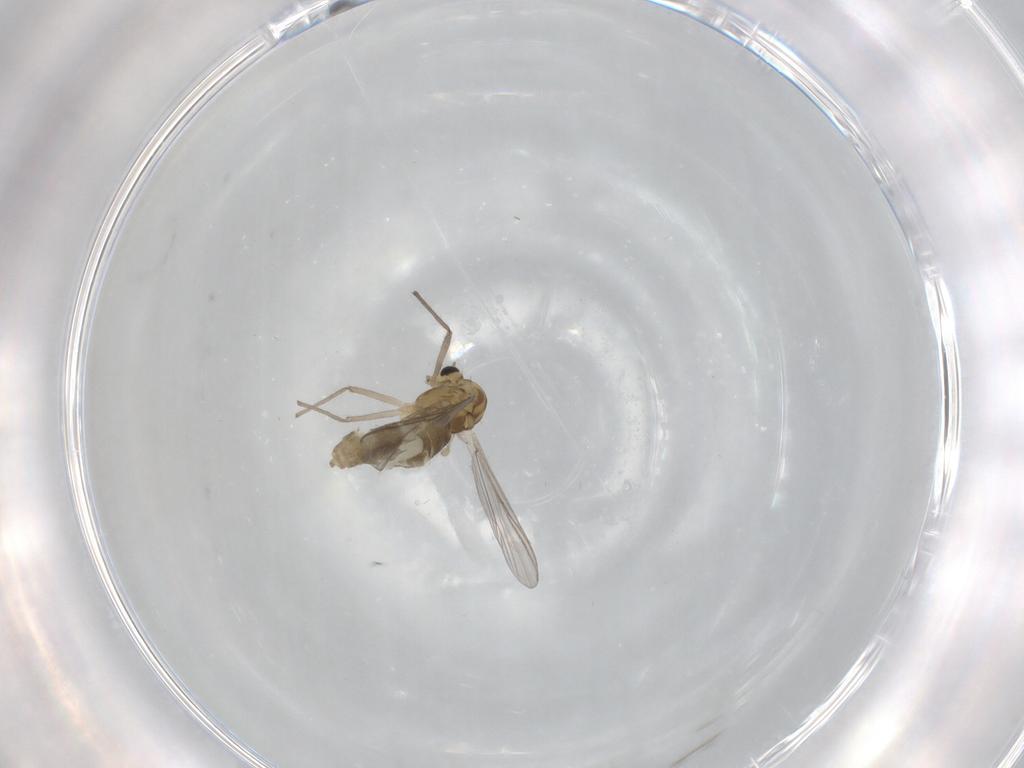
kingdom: Animalia
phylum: Arthropoda
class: Insecta
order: Diptera
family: Chironomidae
